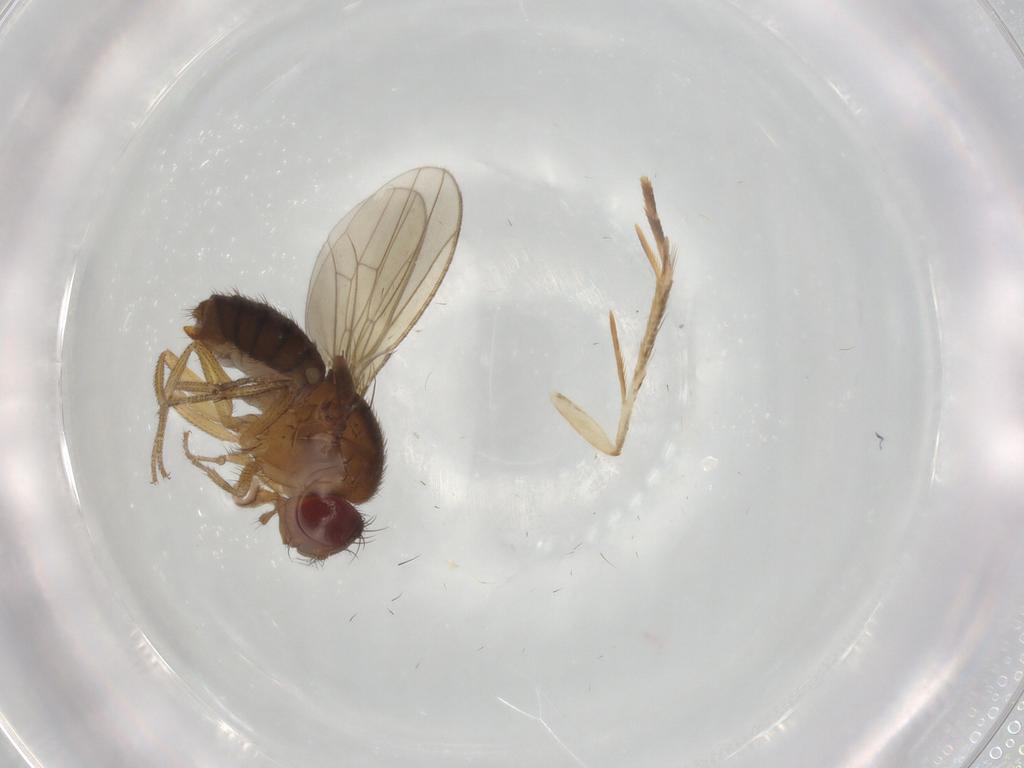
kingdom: Animalia
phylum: Arthropoda
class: Insecta
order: Diptera
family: Drosophilidae
